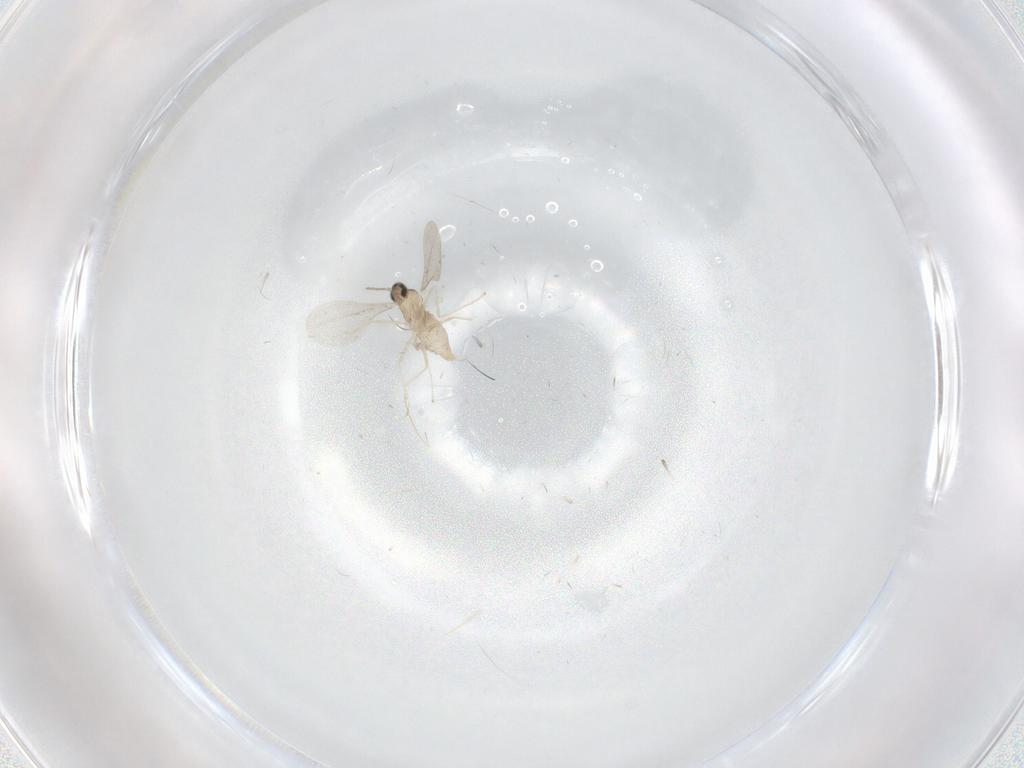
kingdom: Animalia
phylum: Arthropoda
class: Insecta
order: Diptera
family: Cecidomyiidae
